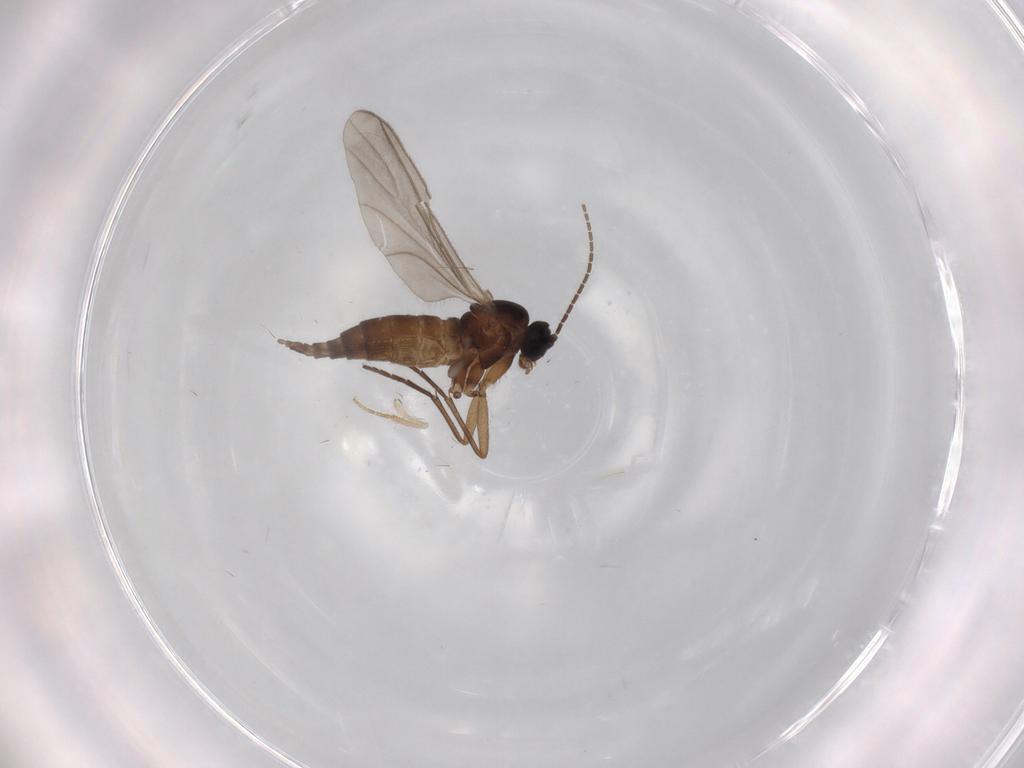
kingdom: Animalia
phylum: Arthropoda
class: Insecta
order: Diptera
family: Sciaridae
